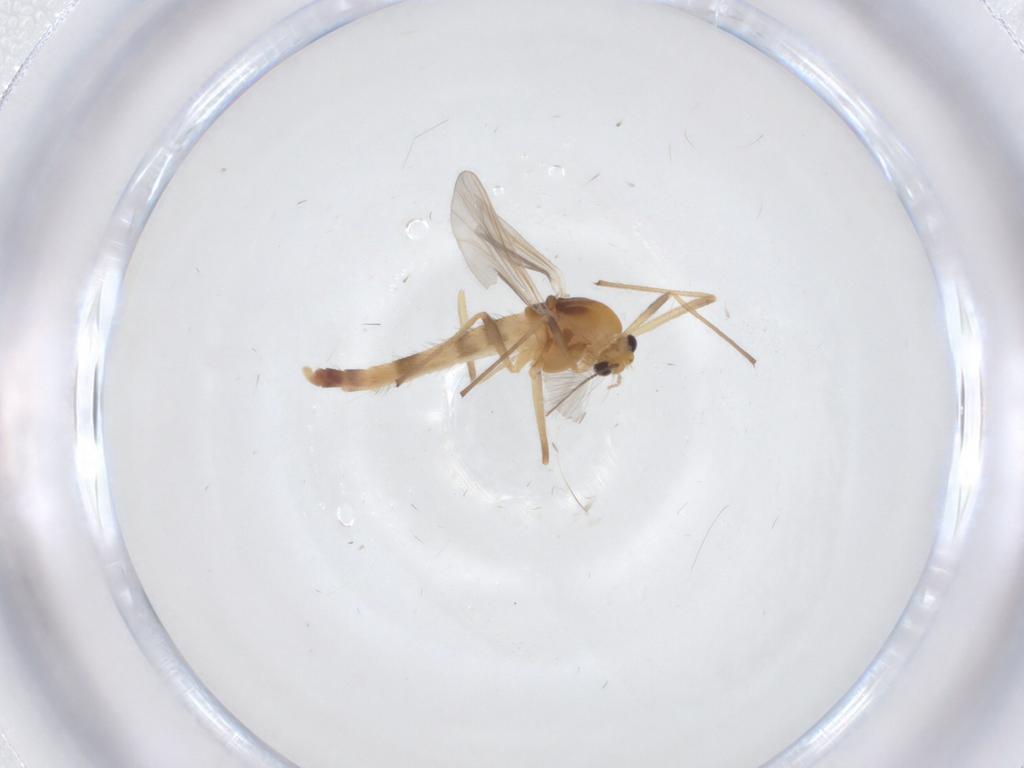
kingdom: Animalia
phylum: Arthropoda
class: Insecta
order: Diptera
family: Chironomidae
